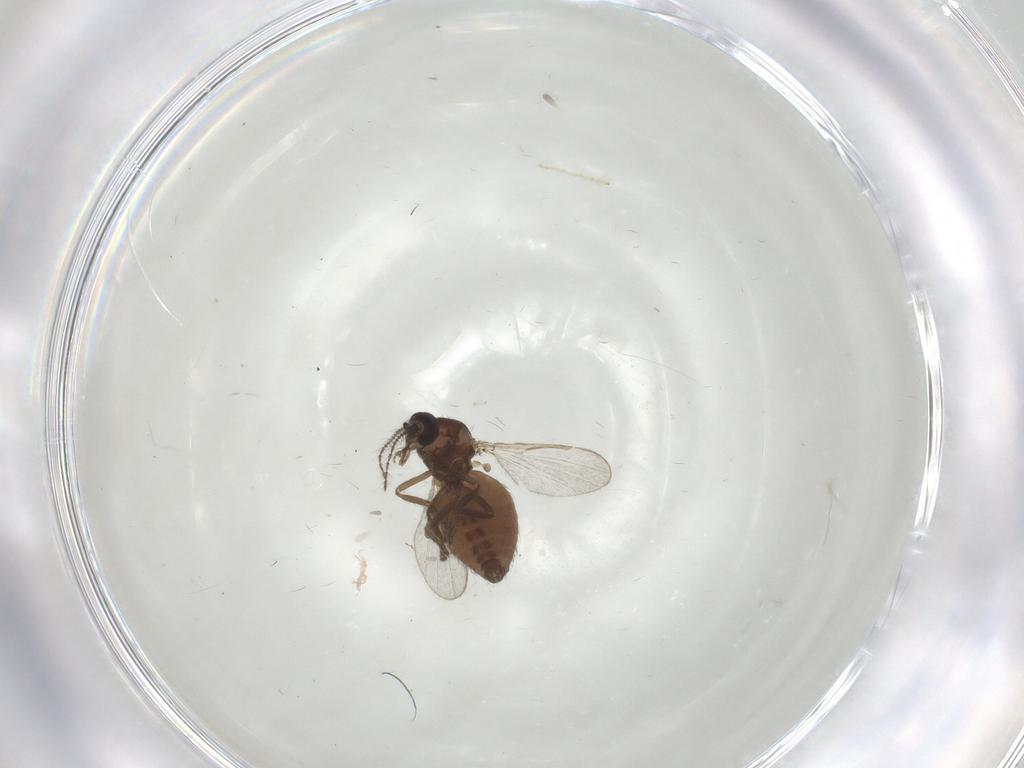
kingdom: Animalia
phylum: Arthropoda
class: Insecta
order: Diptera
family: Ceratopogonidae
